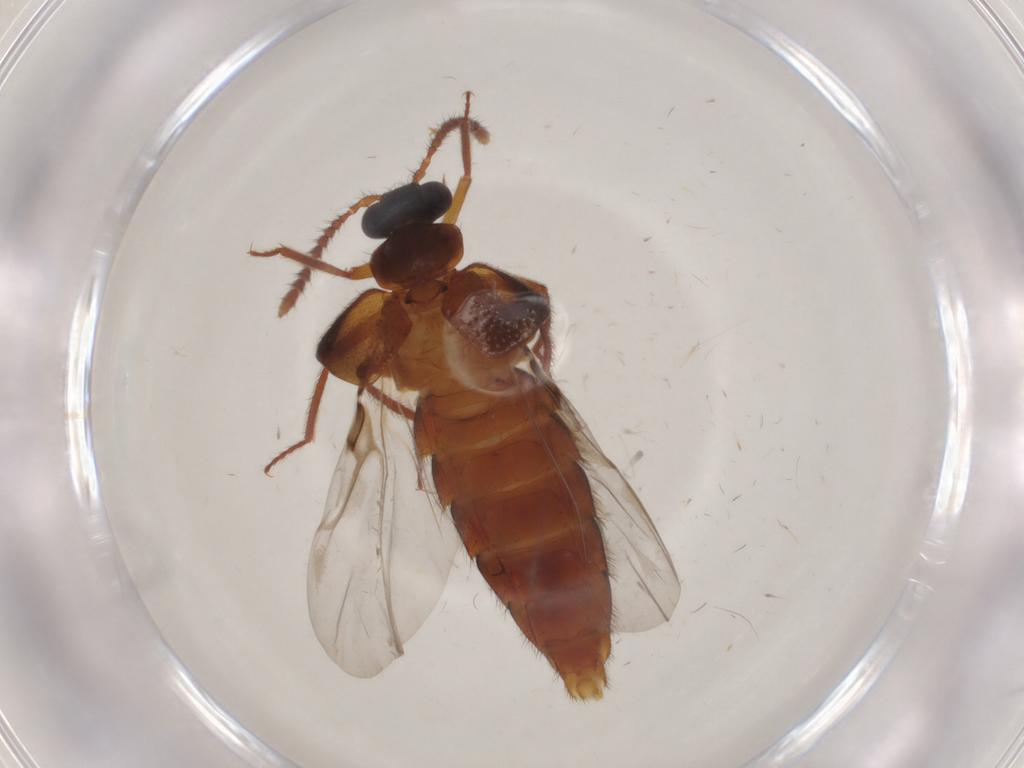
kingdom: Animalia
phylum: Arthropoda
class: Insecta
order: Coleoptera
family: Staphylinidae
